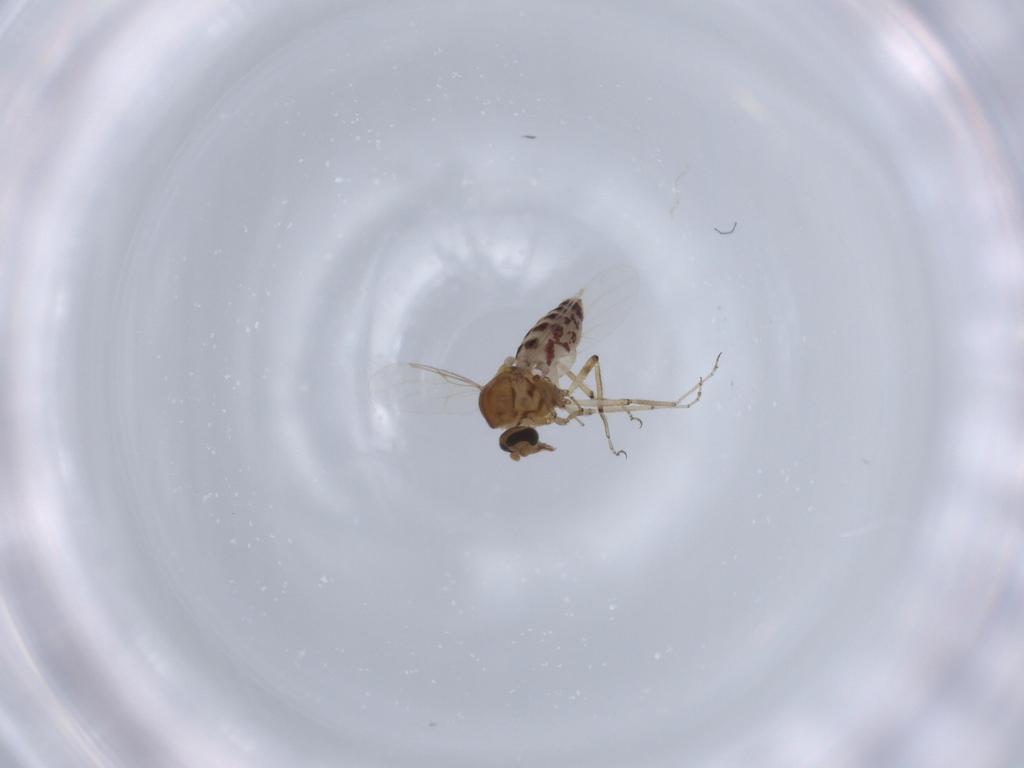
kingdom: Animalia
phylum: Arthropoda
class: Insecta
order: Diptera
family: Ceratopogonidae
